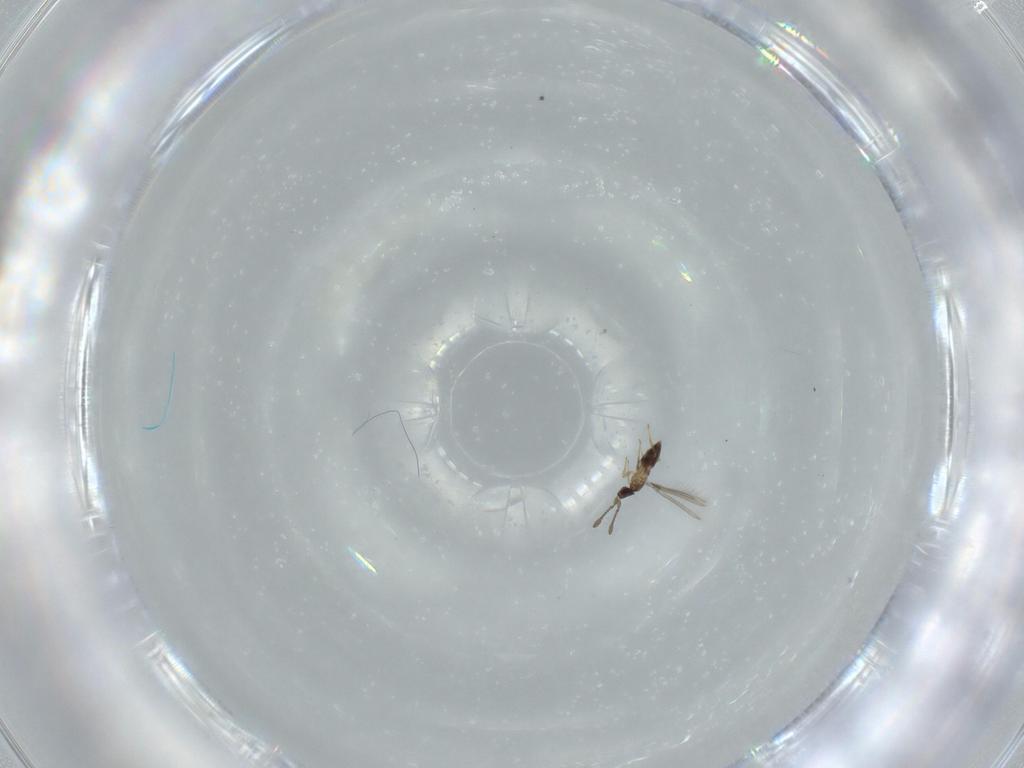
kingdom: Animalia
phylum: Arthropoda
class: Insecta
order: Hymenoptera
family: Mymaridae
